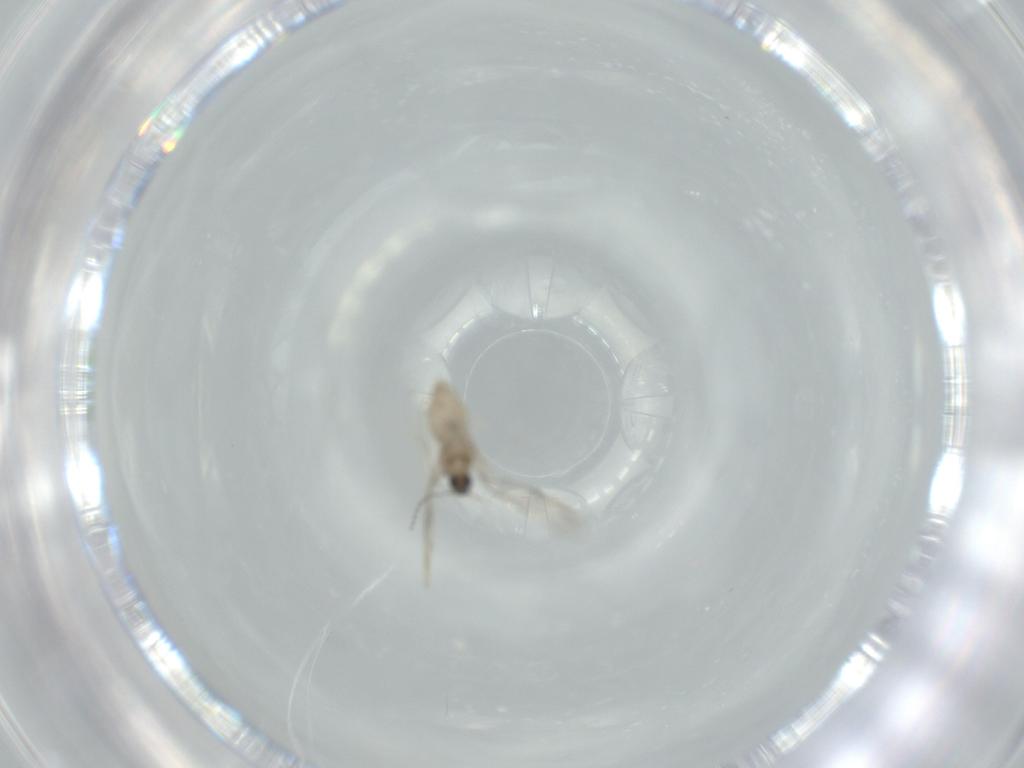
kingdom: Animalia
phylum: Arthropoda
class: Insecta
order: Diptera
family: Cecidomyiidae
